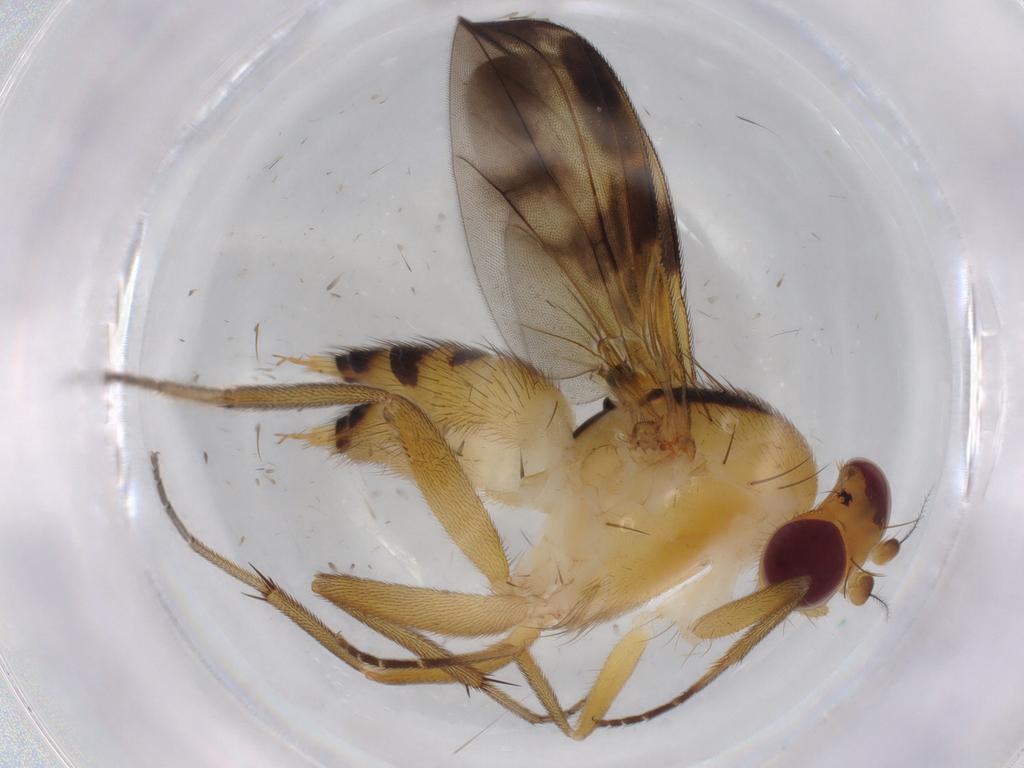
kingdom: Animalia
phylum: Arthropoda
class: Insecta
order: Diptera
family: Clusiidae
